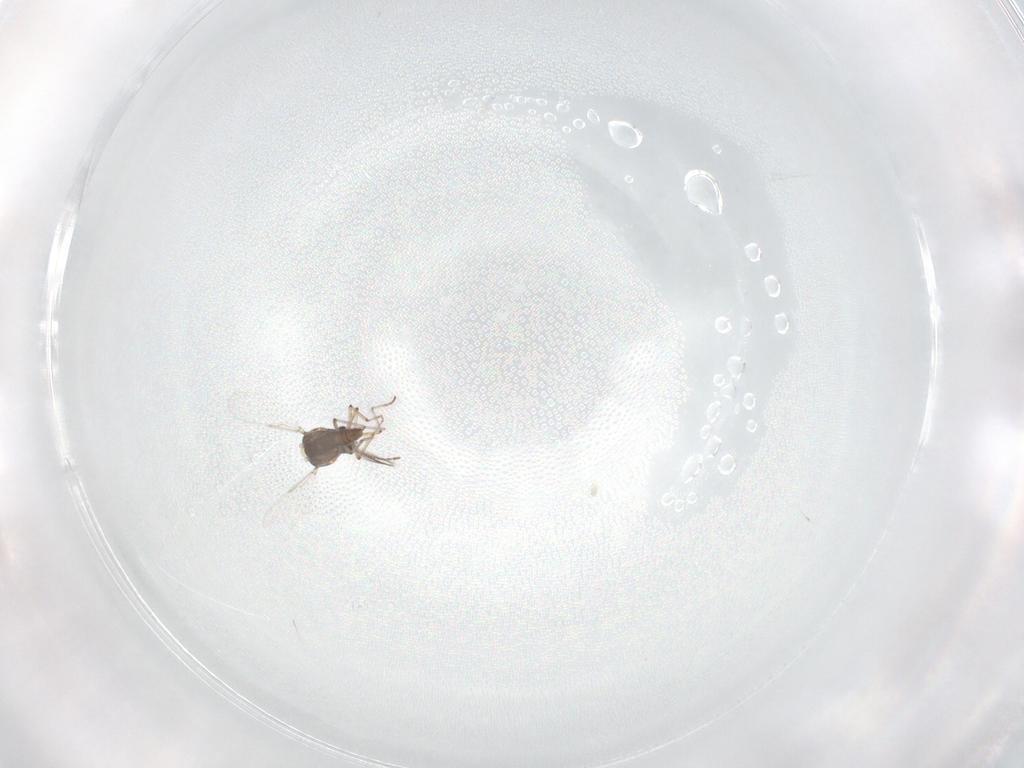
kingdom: Animalia
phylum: Arthropoda
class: Insecta
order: Diptera
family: Ceratopogonidae
